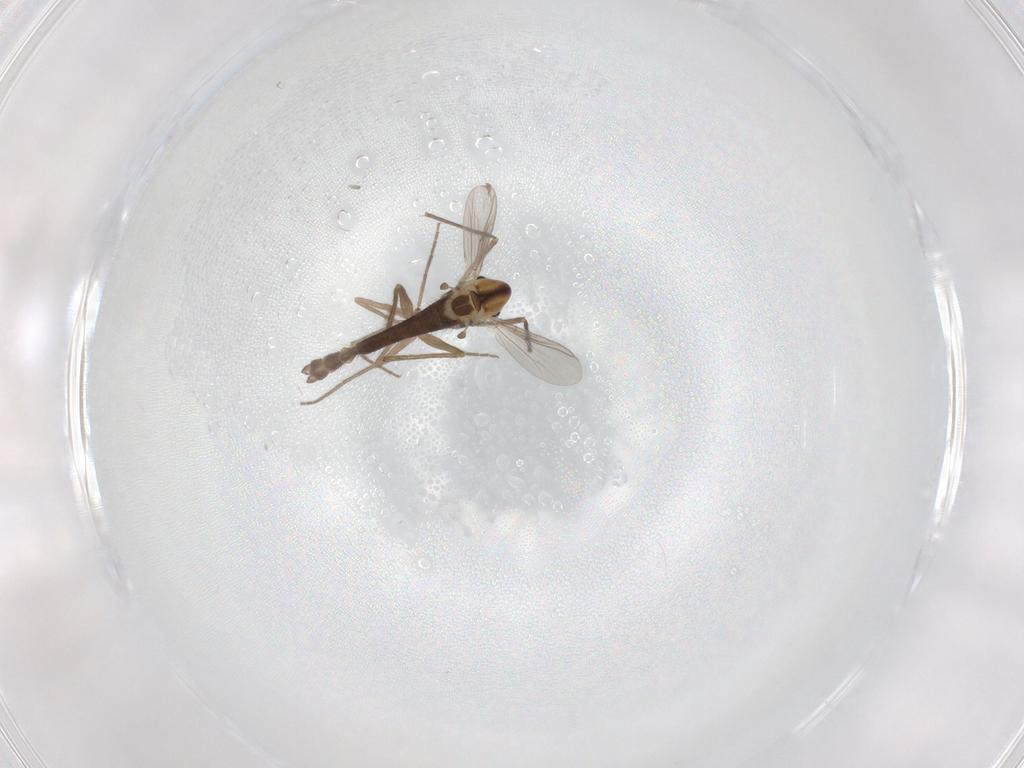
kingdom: Animalia
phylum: Arthropoda
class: Insecta
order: Diptera
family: Chironomidae
